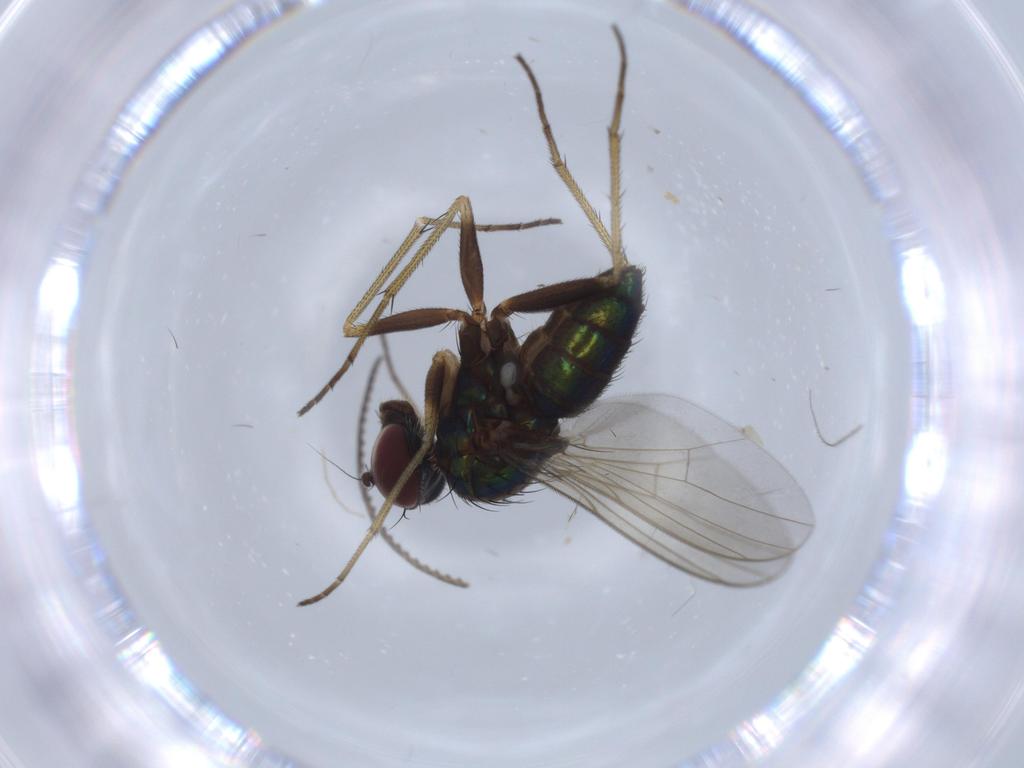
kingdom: Animalia
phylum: Arthropoda
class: Insecta
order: Diptera
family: Dolichopodidae
